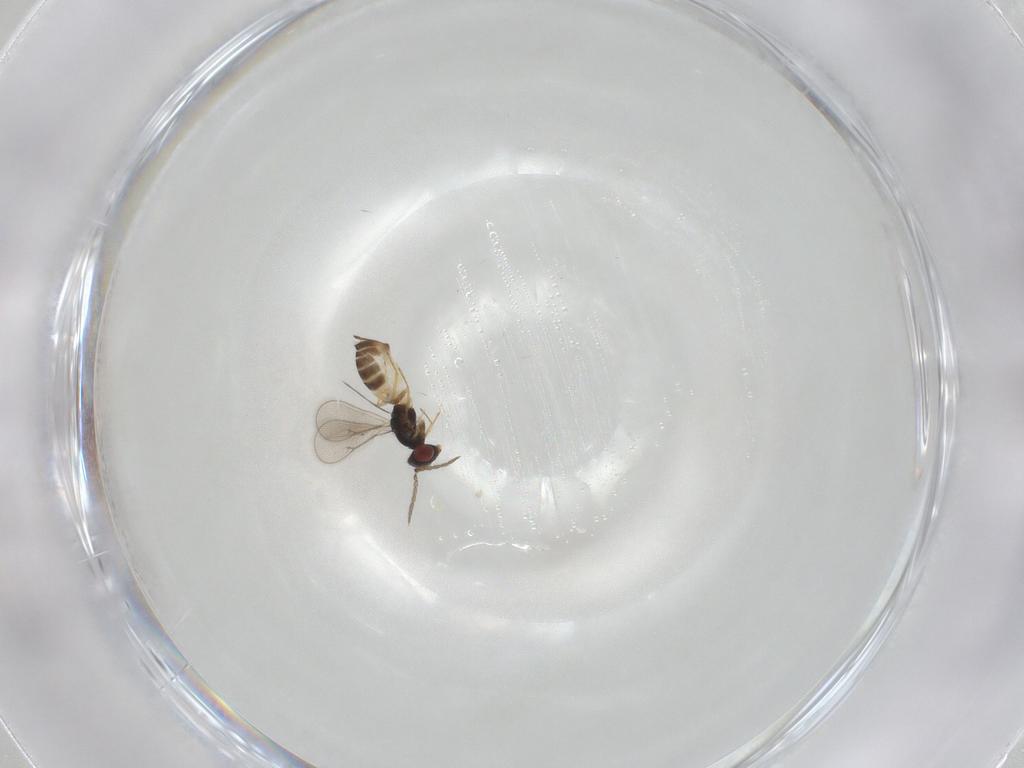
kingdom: Animalia
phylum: Arthropoda
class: Insecta
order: Hymenoptera
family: Eulophidae
